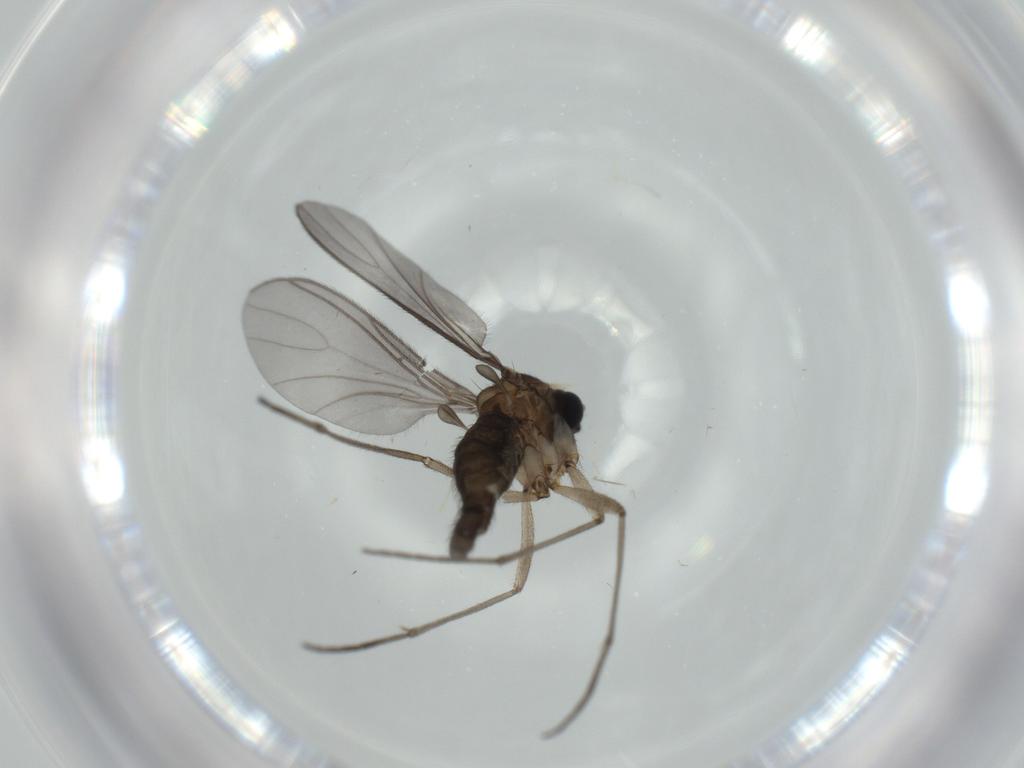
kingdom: Animalia
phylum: Arthropoda
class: Insecta
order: Diptera
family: Sciaridae
